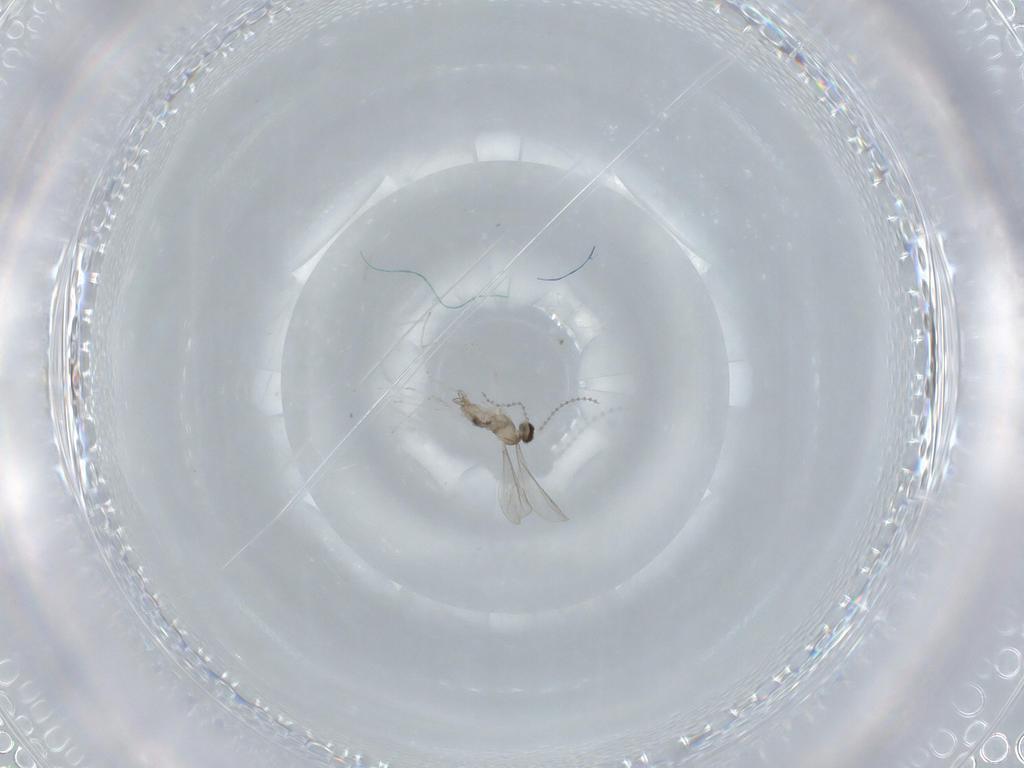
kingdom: Animalia
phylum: Arthropoda
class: Insecta
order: Diptera
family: Cecidomyiidae
